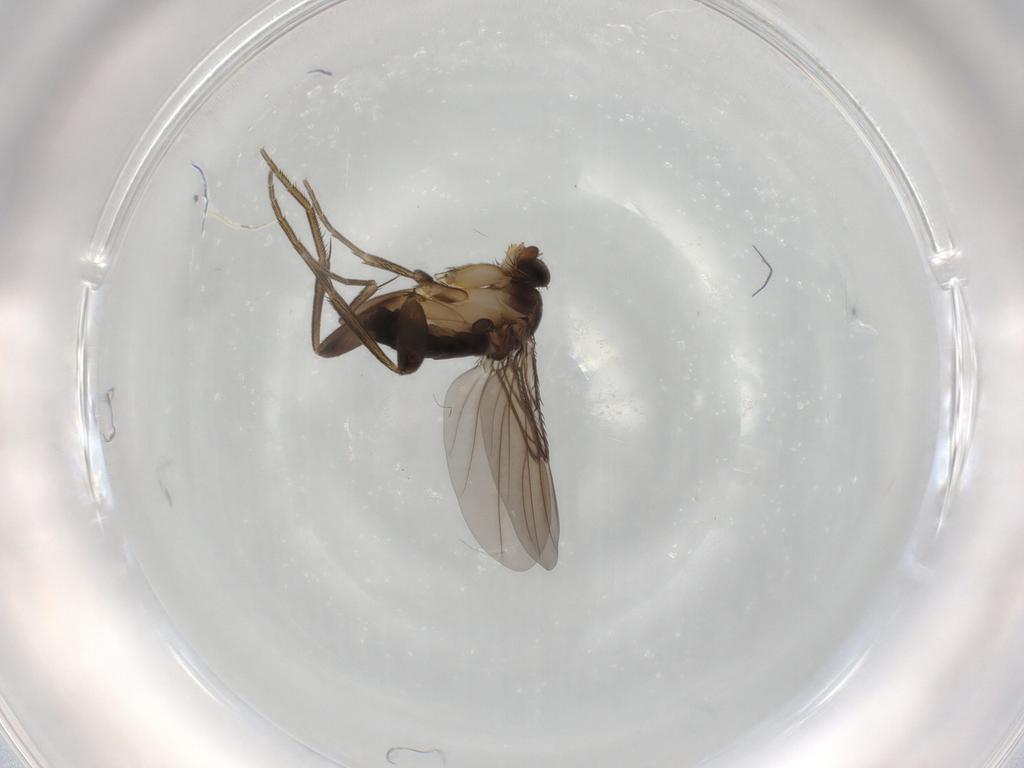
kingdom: Animalia
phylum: Arthropoda
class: Insecta
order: Diptera
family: Phoridae
